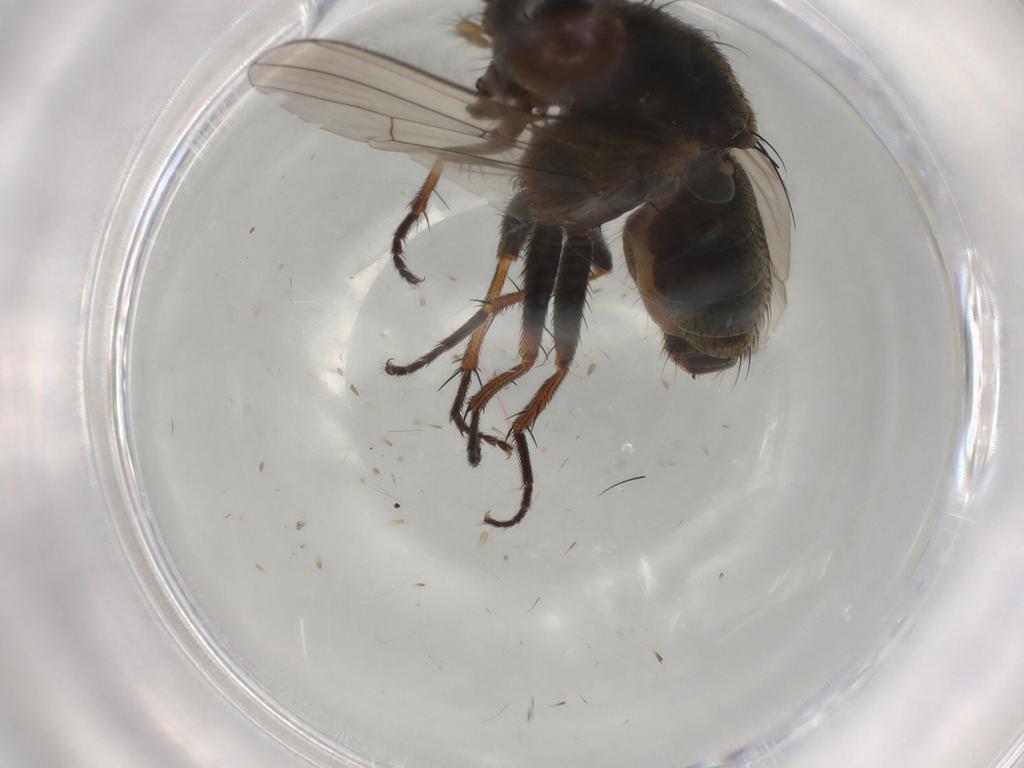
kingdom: Animalia
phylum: Arthropoda
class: Insecta
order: Diptera
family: Muscidae
